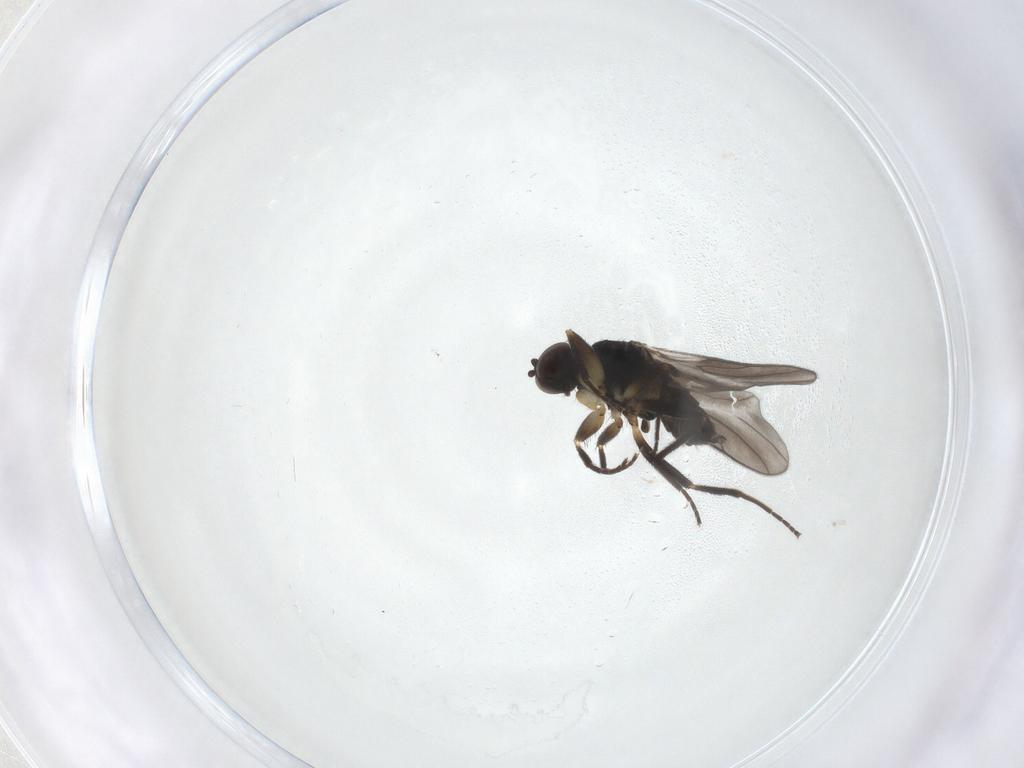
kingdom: Animalia
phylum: Arthropoda
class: Insecta
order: Diptera
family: Hybotidae
